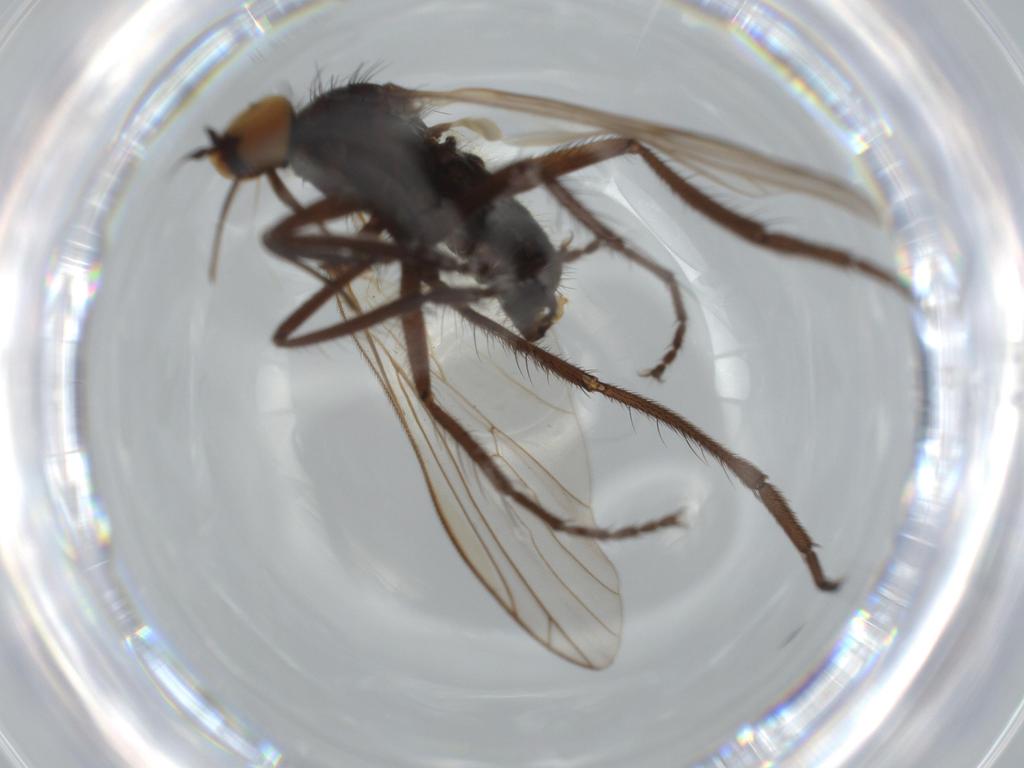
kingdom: Animalia
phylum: Arthropoda
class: Insecta
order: Diptera
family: Empididae
